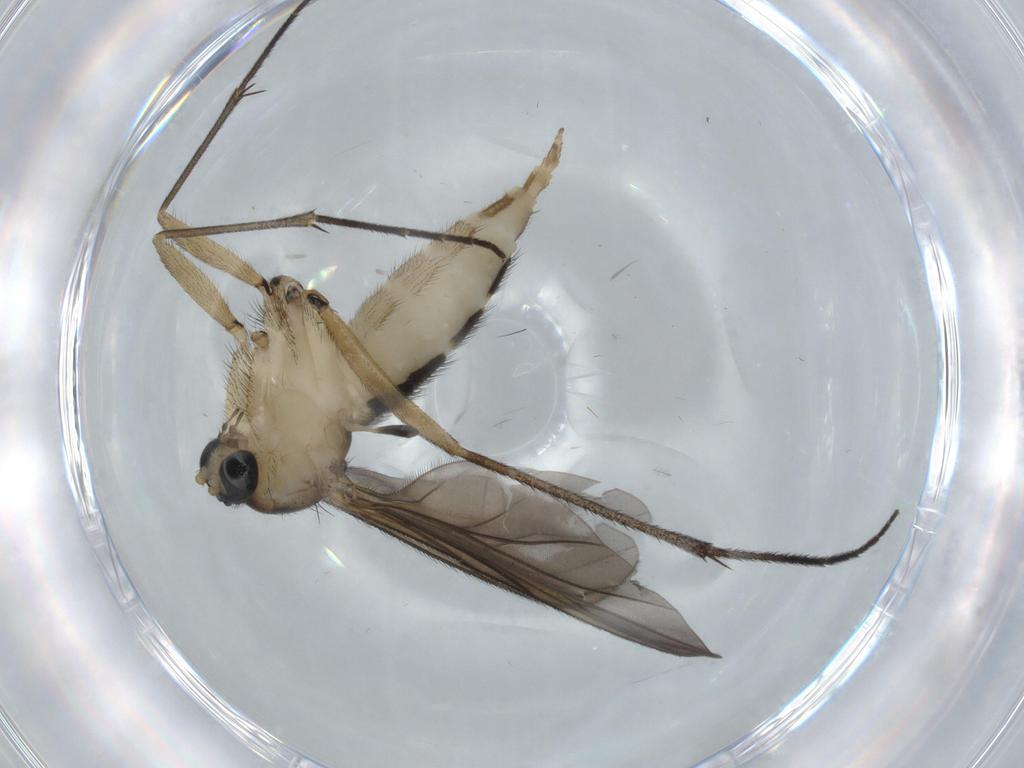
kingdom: Animalia
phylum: Arthropoda
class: Insecta
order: Diptera
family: Sciaridae
